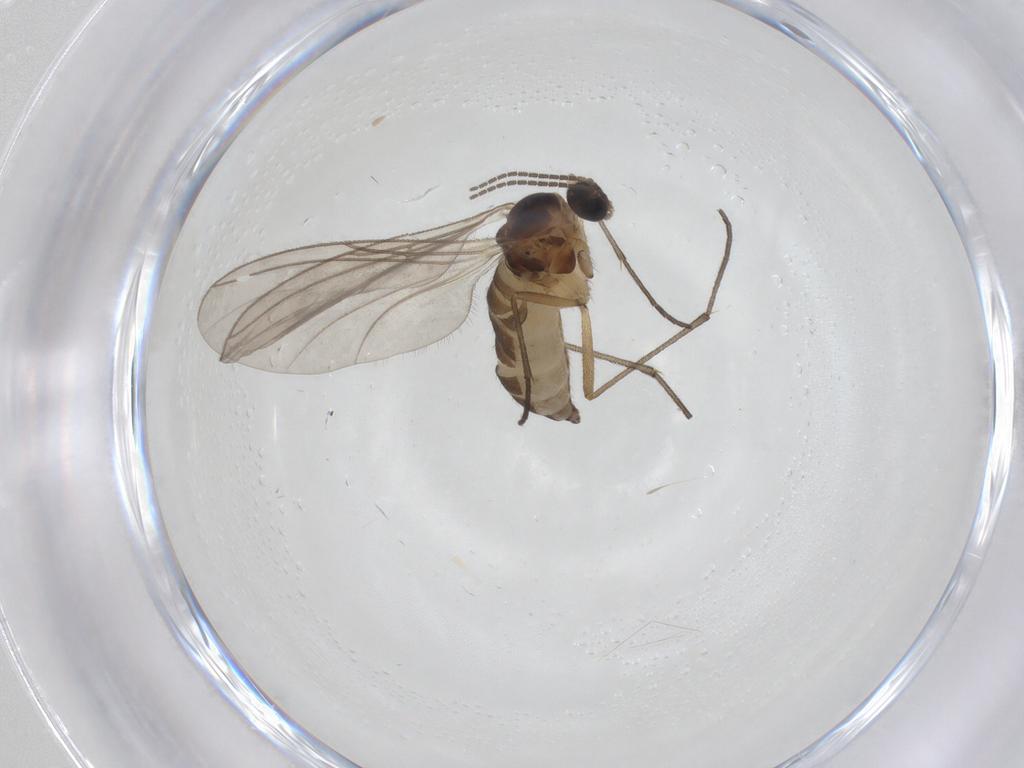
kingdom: Animalia
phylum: Arthropoda
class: Insecta
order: Diptera
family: Sciaridae
